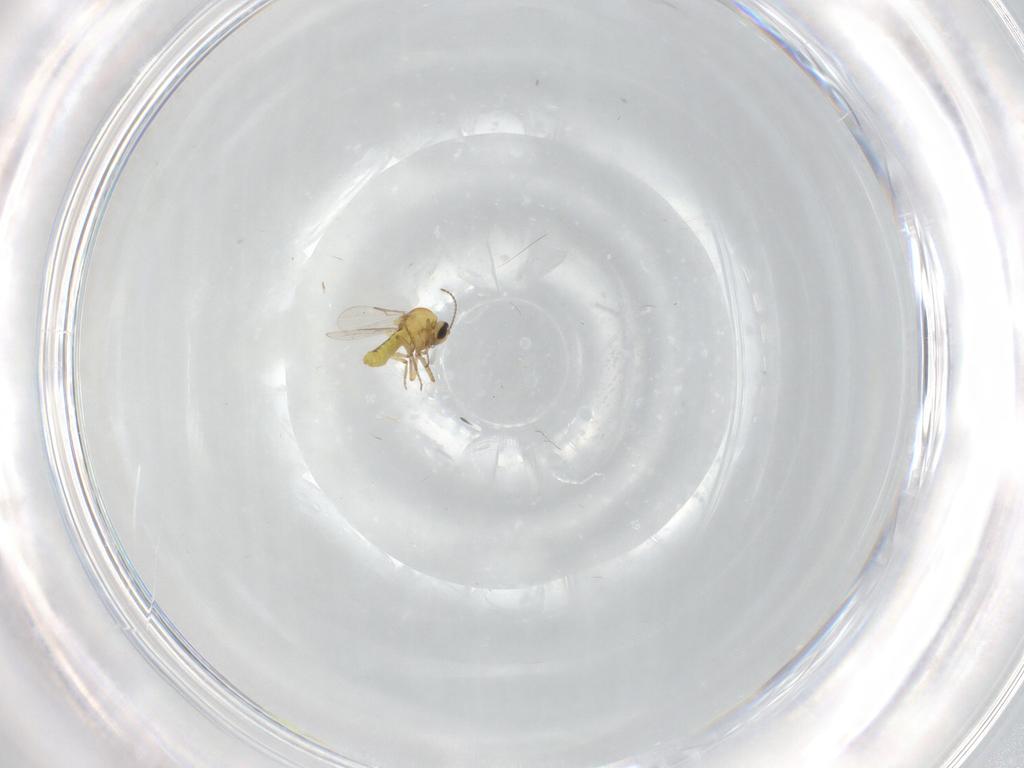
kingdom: Animalia
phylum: Arthropoda
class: Insecta
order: Diptera
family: Ceratopogonidae
